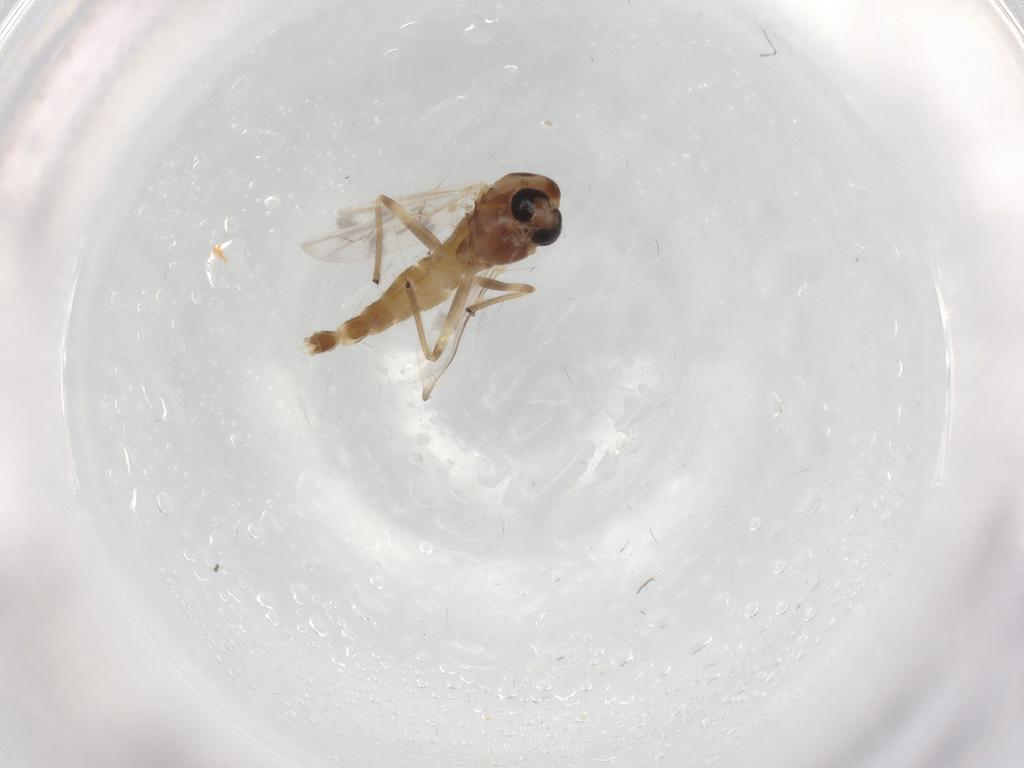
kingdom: Animalia
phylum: Arthropoda
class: Insecta
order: Diptera
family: Chironomidae
